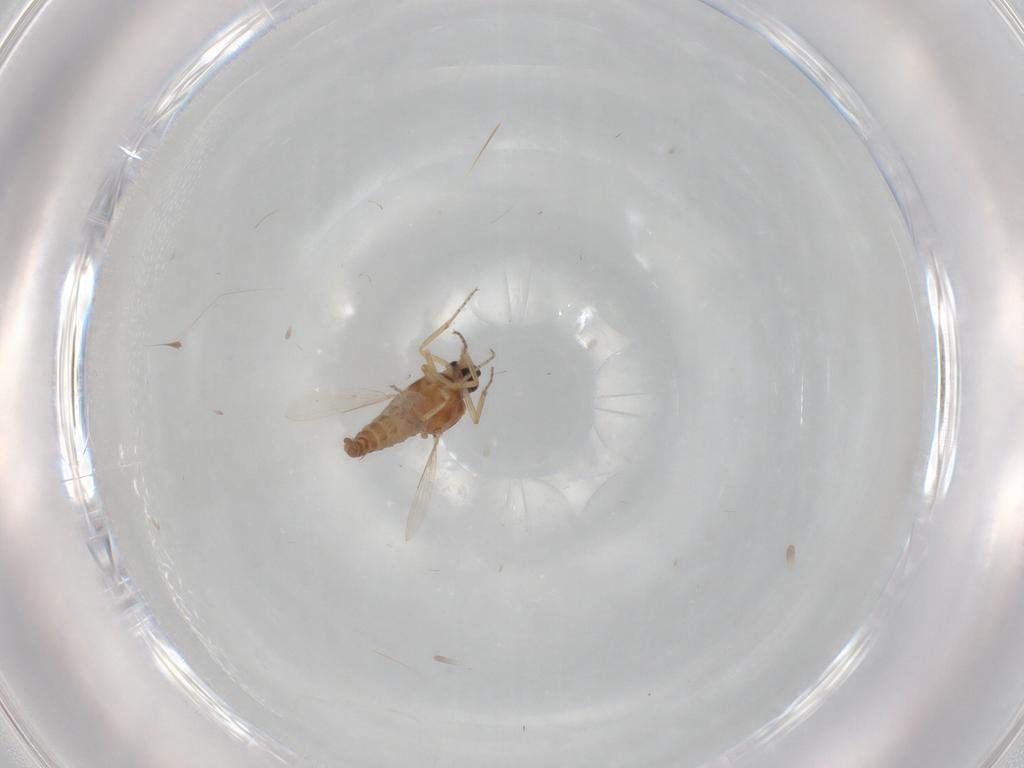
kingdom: Animalia
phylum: Arthropoda
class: Insecta
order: Diptera
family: Ceratopogonidae
